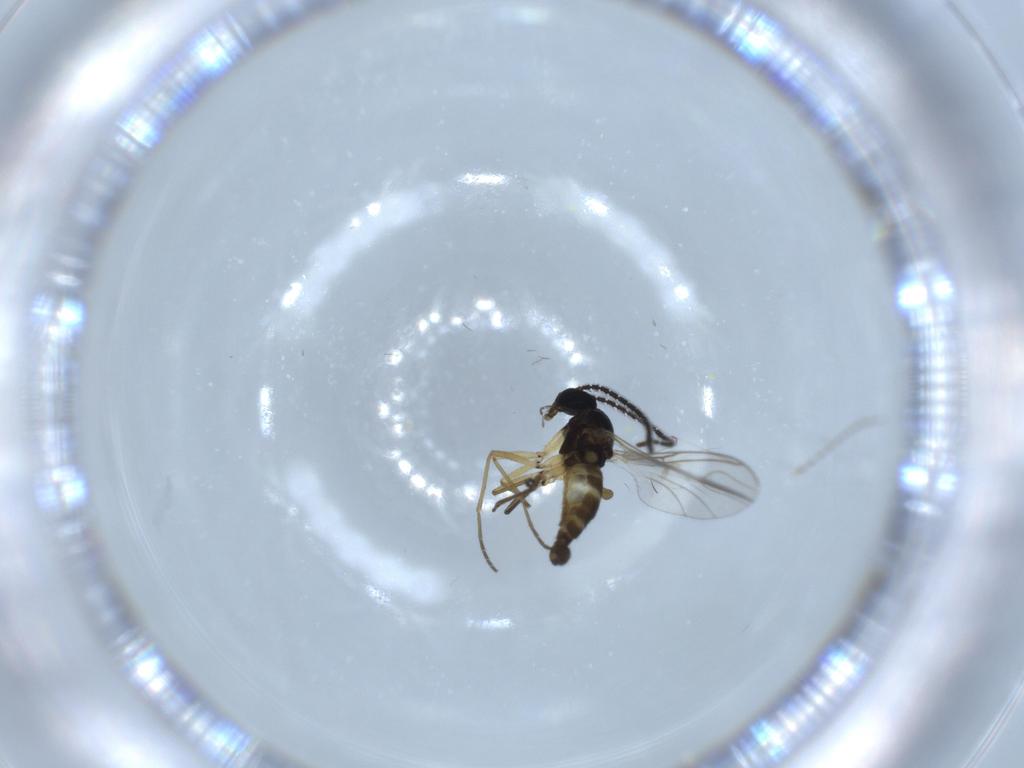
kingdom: Animalia
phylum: Arthropoda
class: Insecta
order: Diptera
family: Sciaridae
